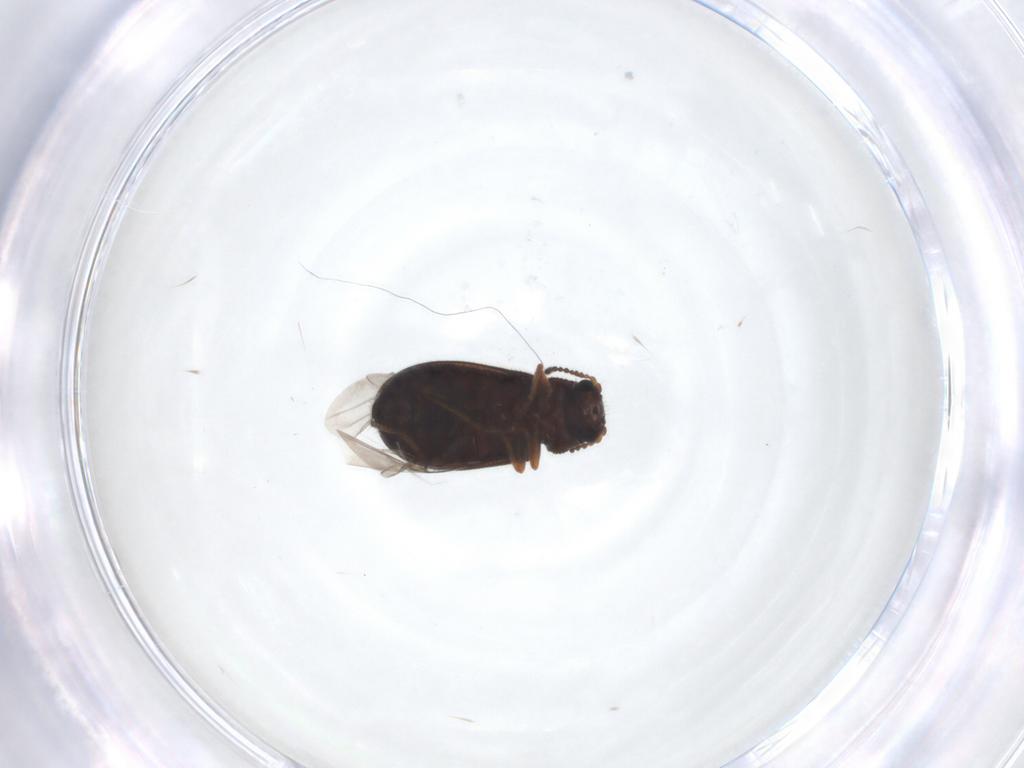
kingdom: Animalia
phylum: Arthropoda
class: Insecta
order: Coleoptera
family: Melyridae
